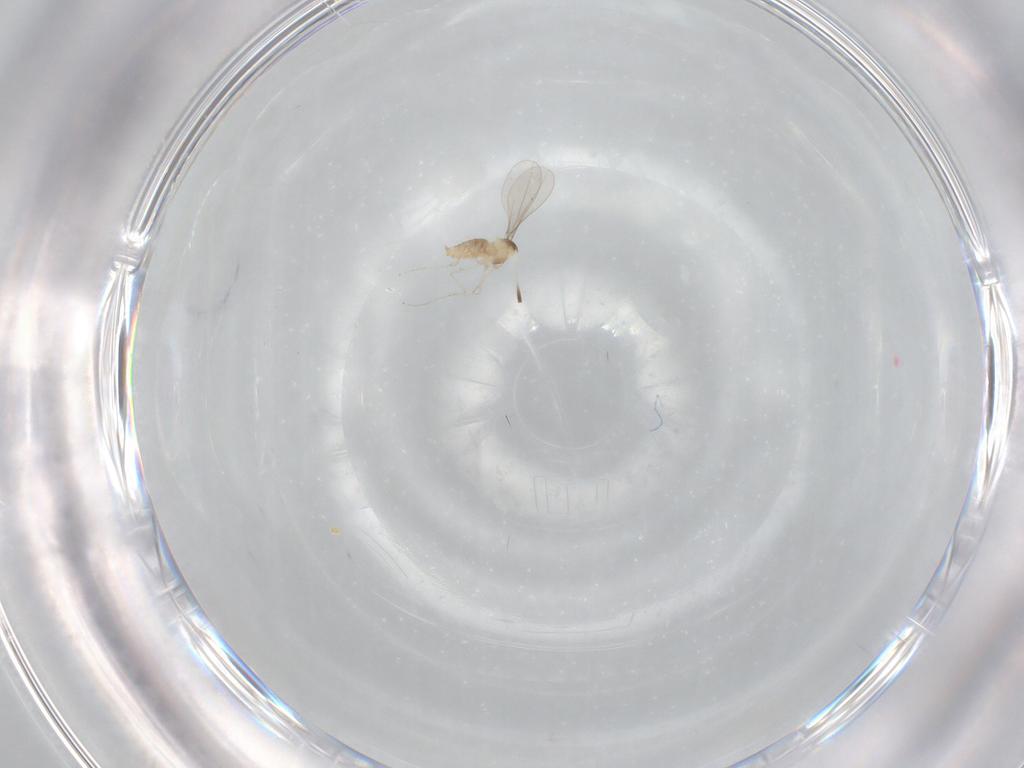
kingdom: Animalia
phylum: Arthropoda
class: Insecta
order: Diptera
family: Cecidomyiidae
